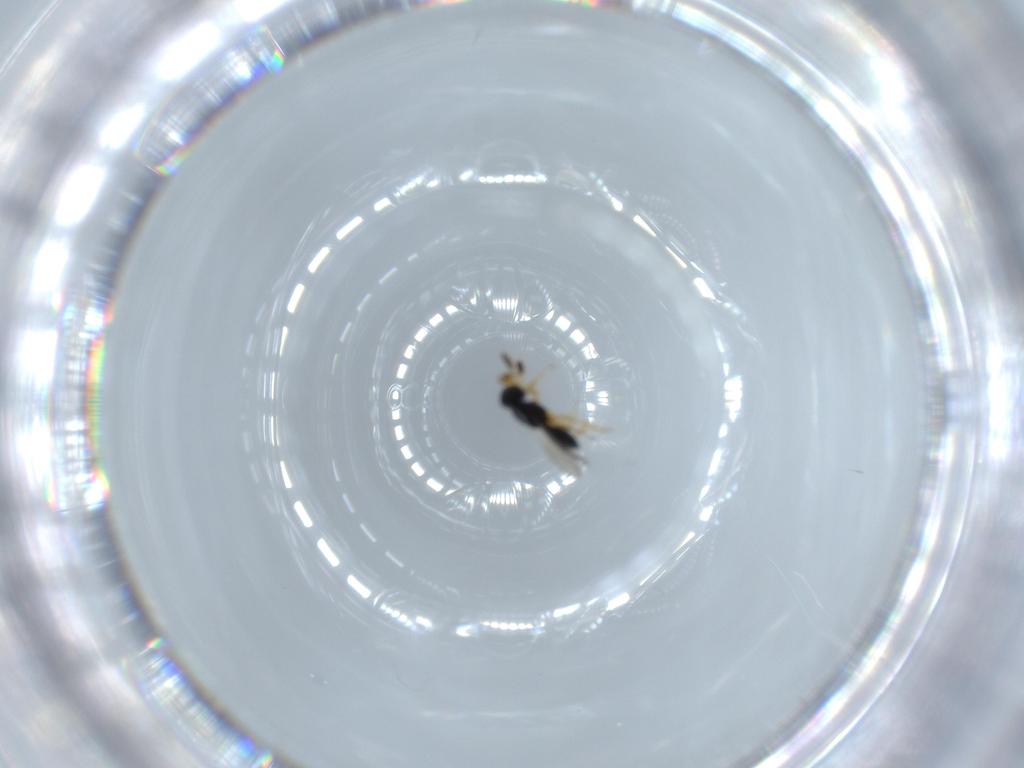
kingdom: Animalia
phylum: Arthropoda
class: Insecta
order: Hymenoptera
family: Scelionidae
